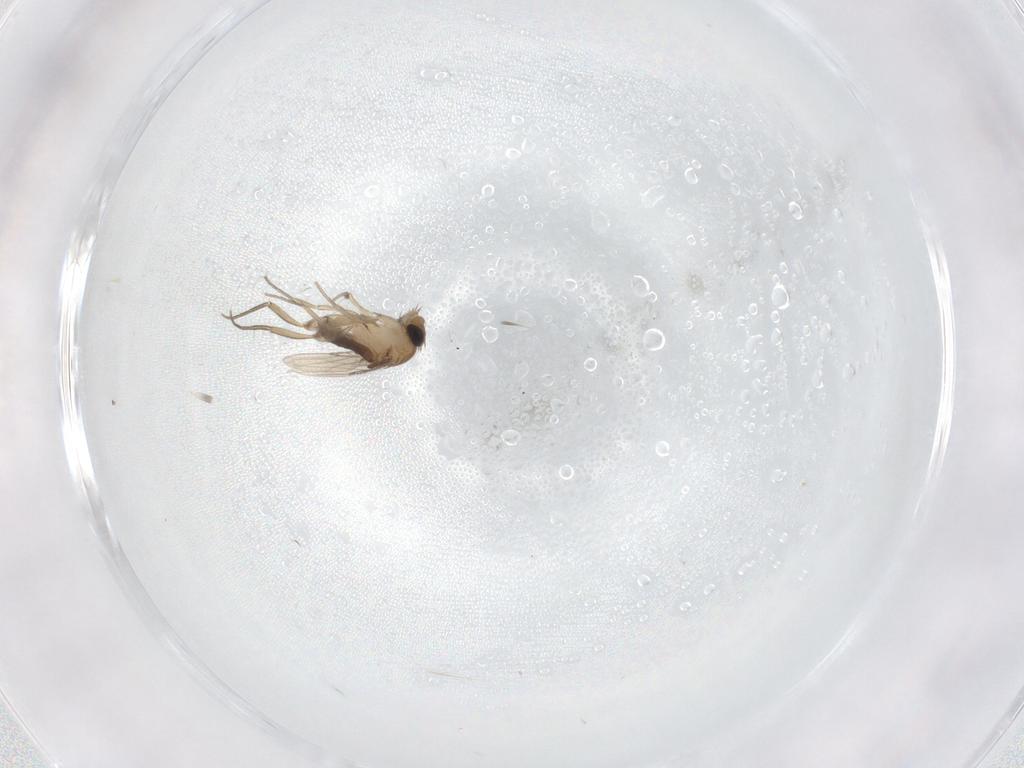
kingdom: Animalia
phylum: Arthropoda
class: Insecta
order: Diptera
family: Phoridae
